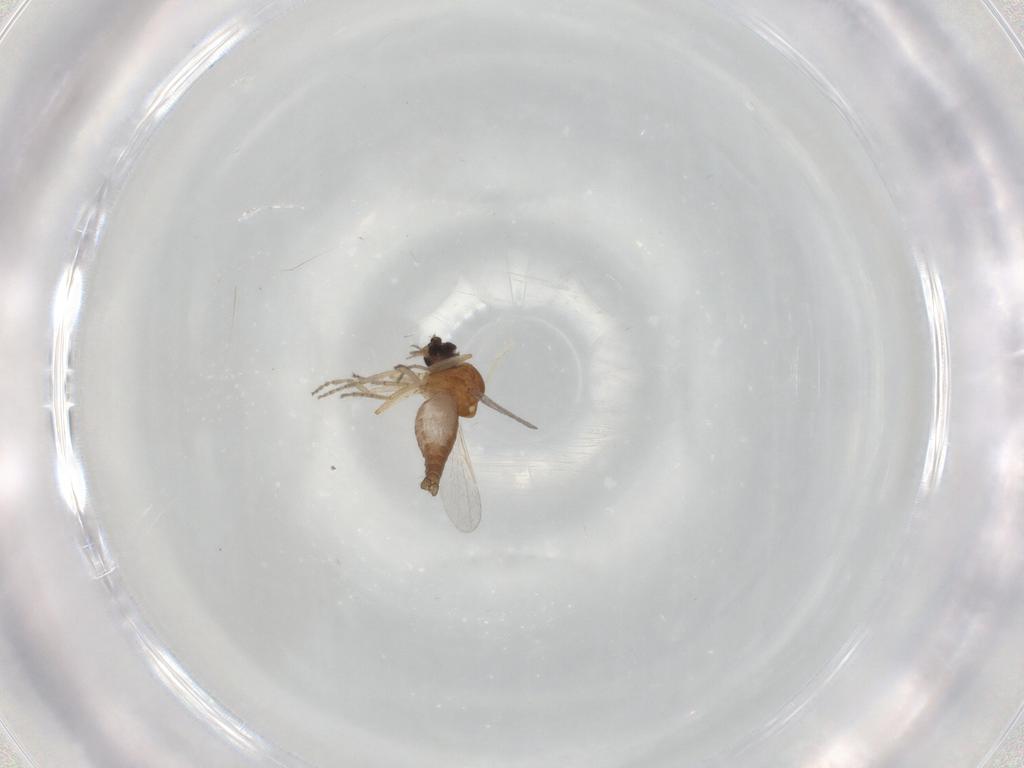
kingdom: Animalia
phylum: Arthropoda
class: Insecta
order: Diptera
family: Ceratopogonidae
